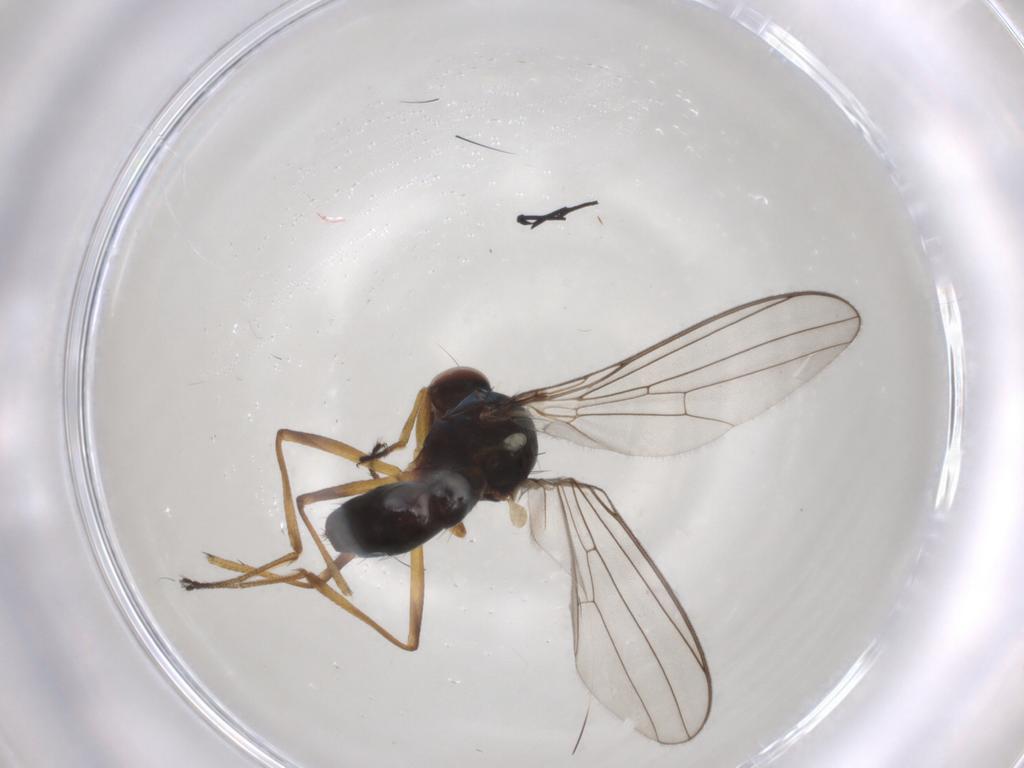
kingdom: Animalia
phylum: Arthropoda
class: Insecta
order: Diptera
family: Sepsidae
